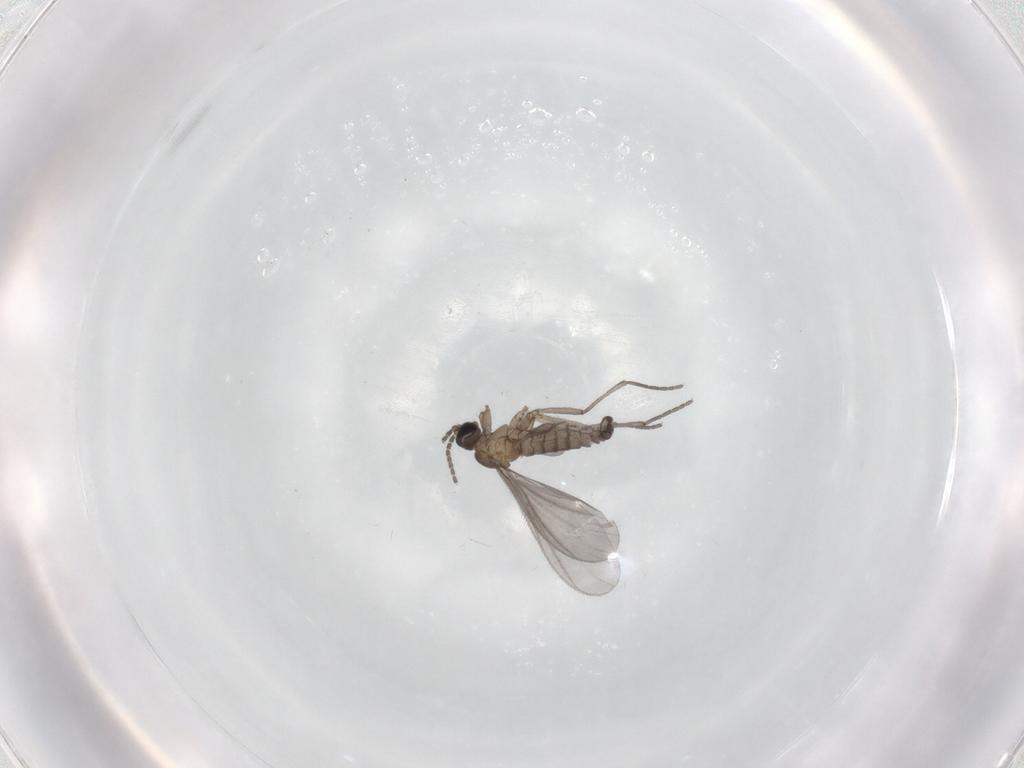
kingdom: Animalia
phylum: Arthropoda
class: Insecta
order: Diptera
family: Sciaridae
